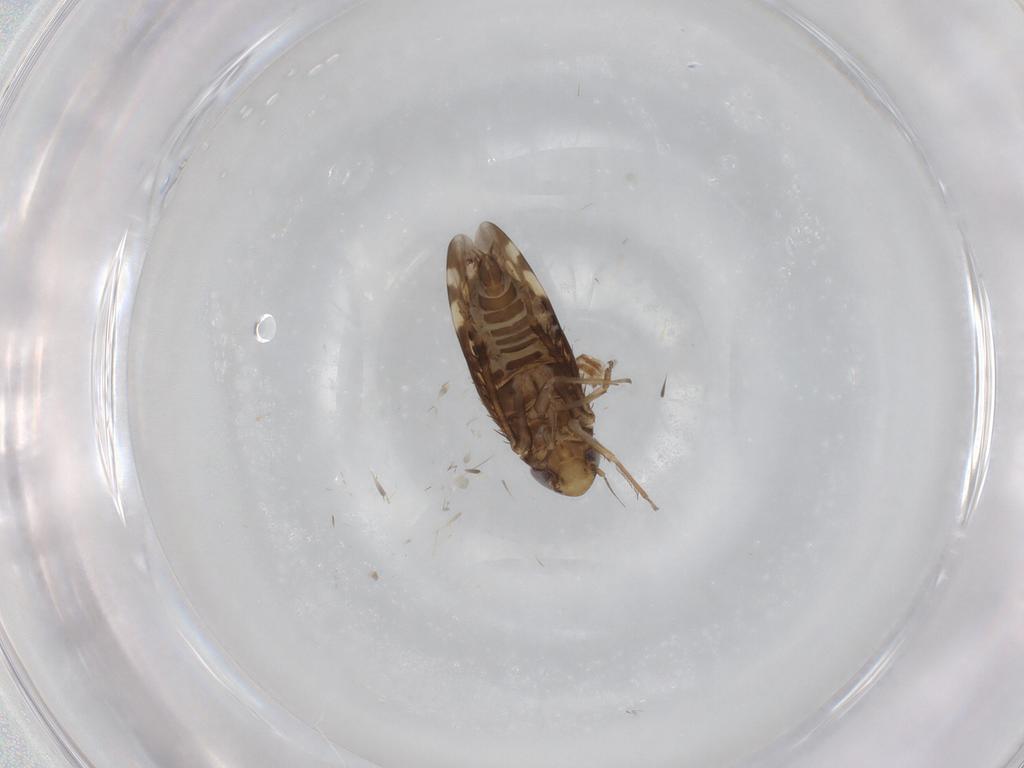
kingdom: Animalia
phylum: Arthropoda
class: Insecta
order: Hemiptera
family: Cicadellidae
